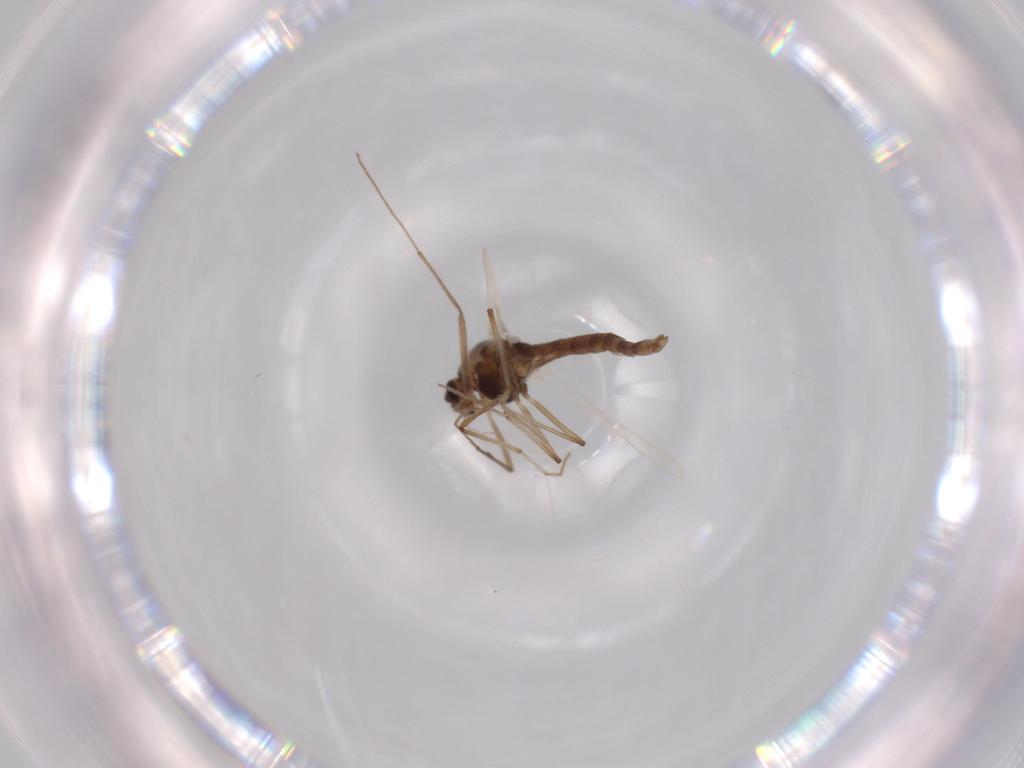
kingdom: Animalia
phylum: Arthropoda
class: Insecta
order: Diptera
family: Chironomidae
